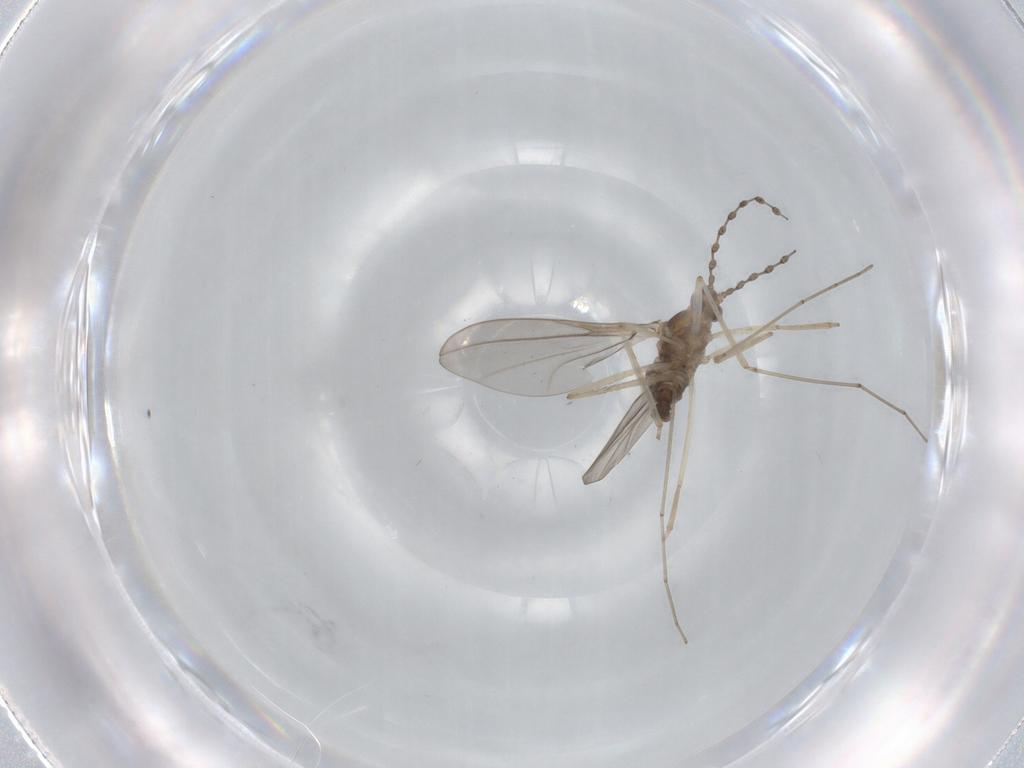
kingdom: Animalia
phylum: Arthropoda
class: Insecta
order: Diptera
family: Cecidomyiidae
